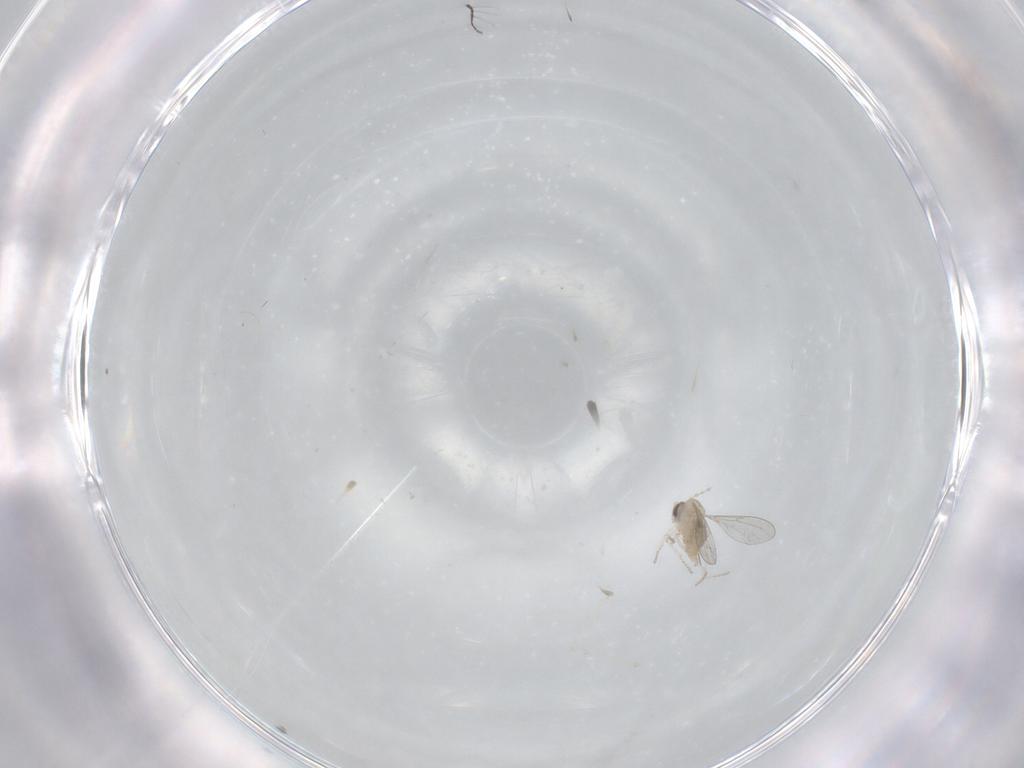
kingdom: Animalia
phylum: Arthropoda
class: Insecta
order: Diptera
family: Cecidomyiidae
